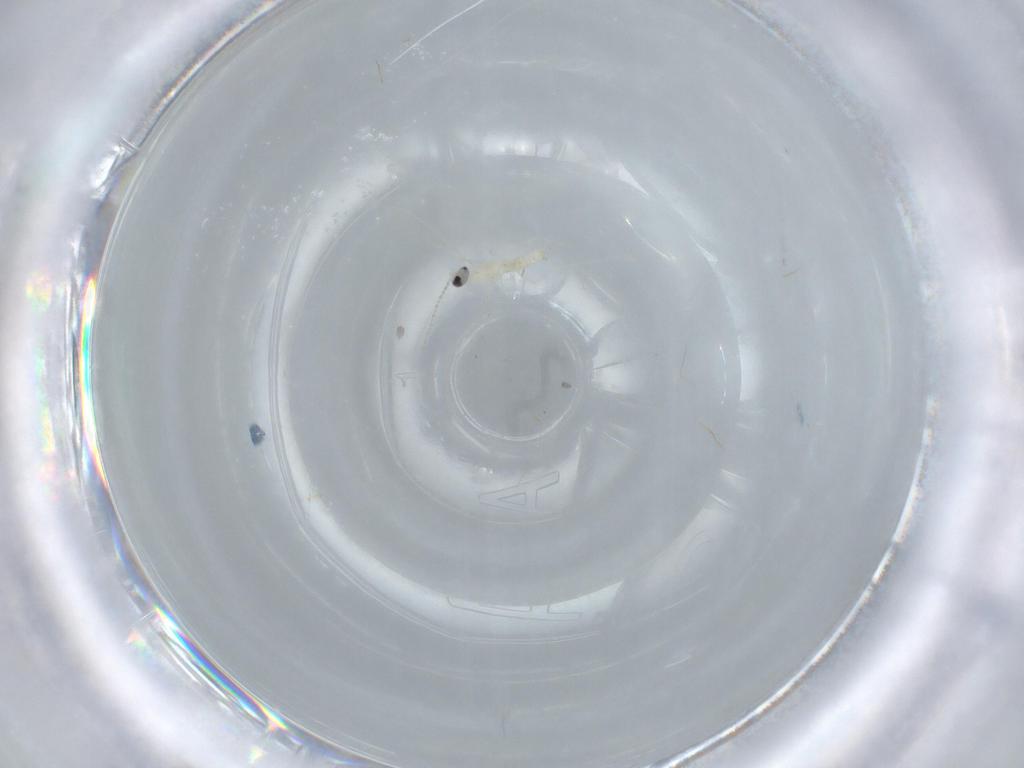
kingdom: Animalia
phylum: Arthropoda
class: Insecta
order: Diptera
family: Chironomidae
